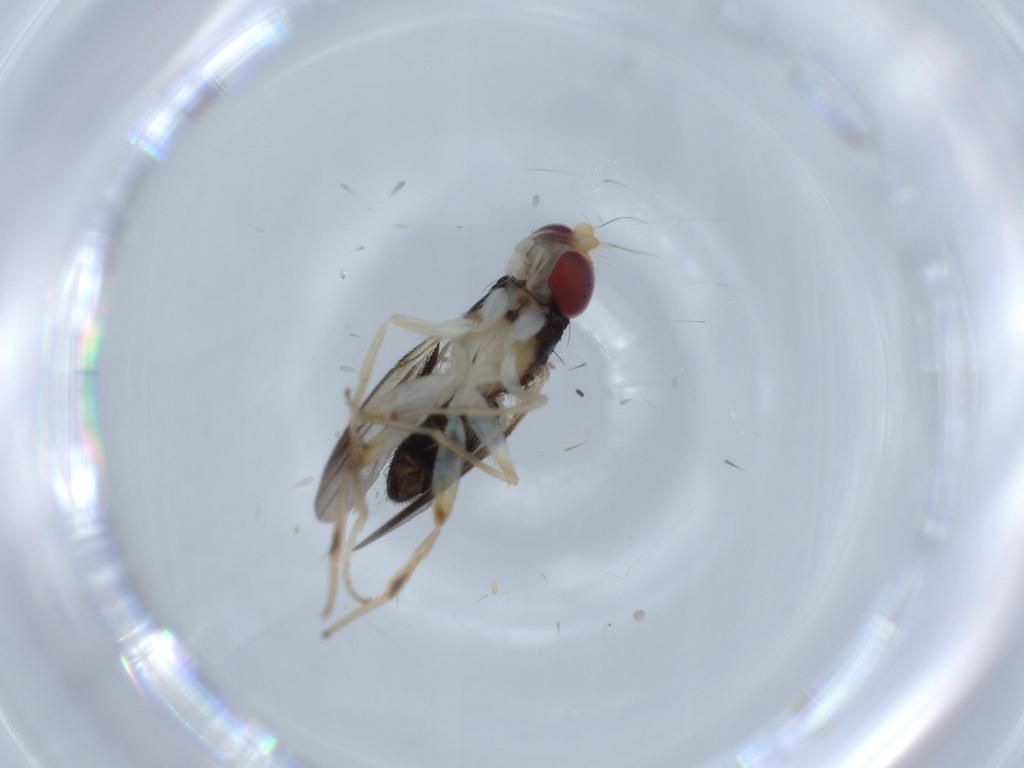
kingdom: Animalia
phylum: Arthropoda
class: Insecta
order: Diptera
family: Clusiidae
